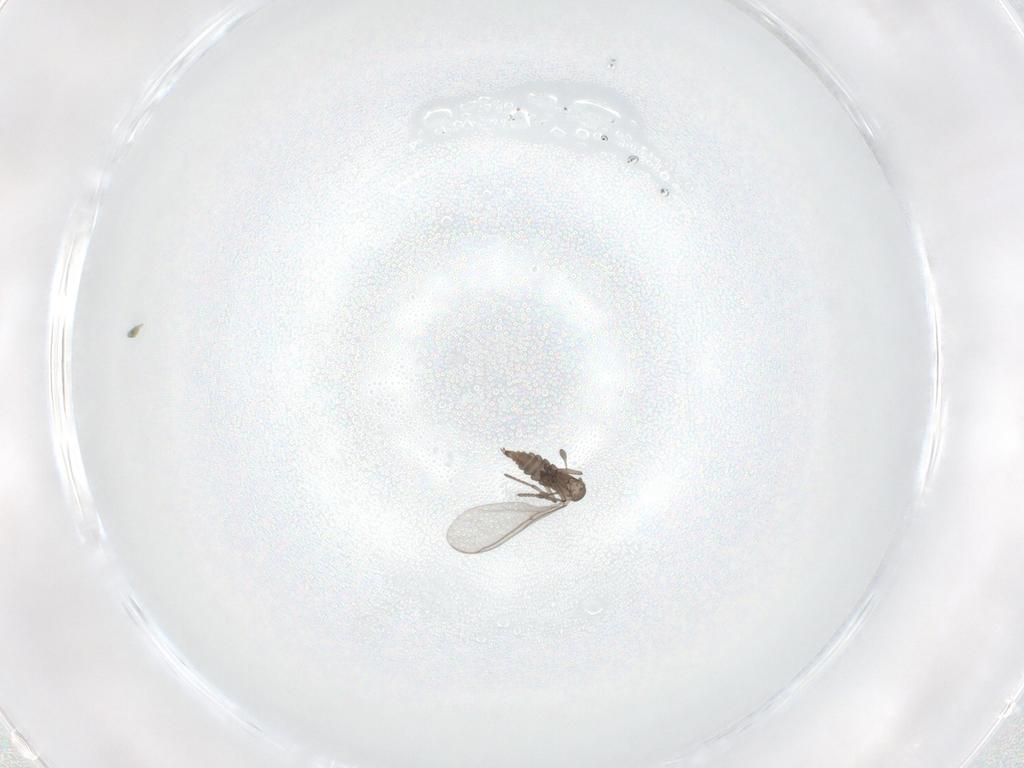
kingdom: Animalia
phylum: Arthropoda
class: Insecta
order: Diptera
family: Sciaridae
